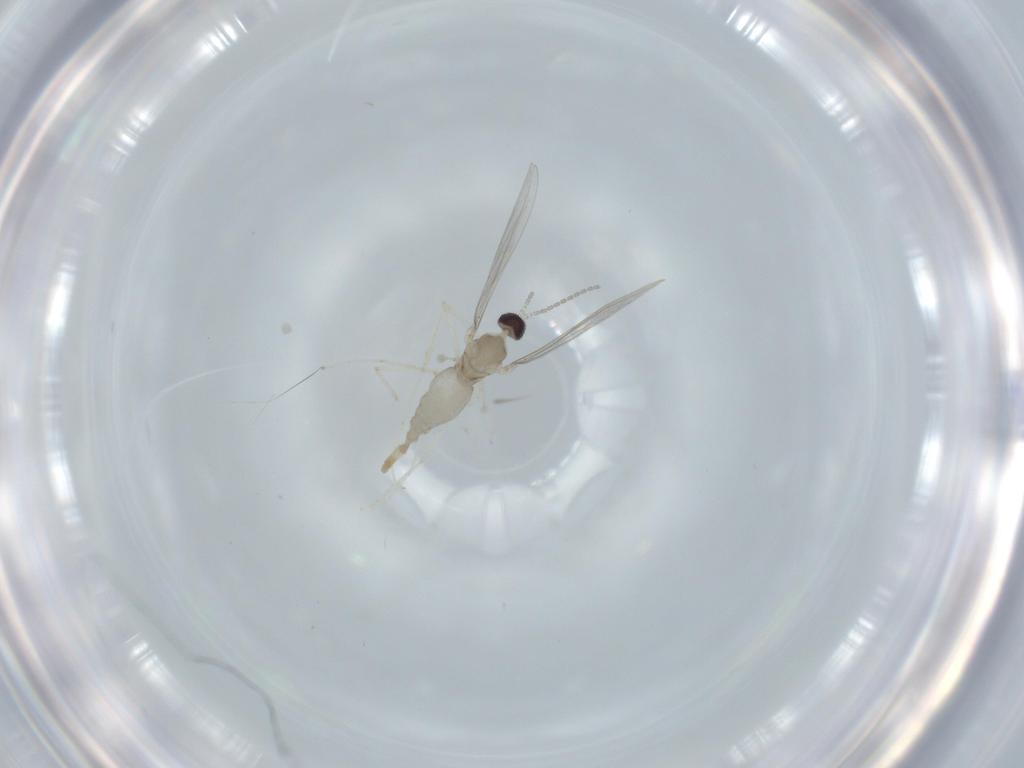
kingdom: Animalia
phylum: Arthropoda
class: Insecta
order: Diptera
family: Cecidomyiidae
